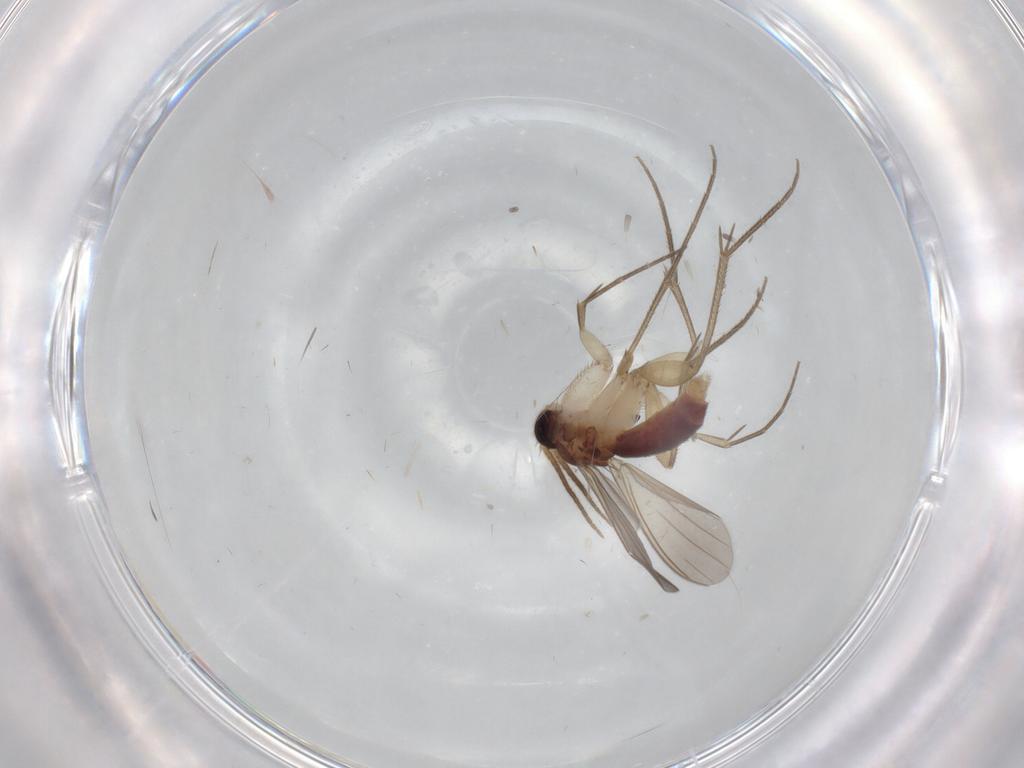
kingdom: Animalia
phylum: Arthropoda
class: Insecta
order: Diptera
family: Mycetophilidae
